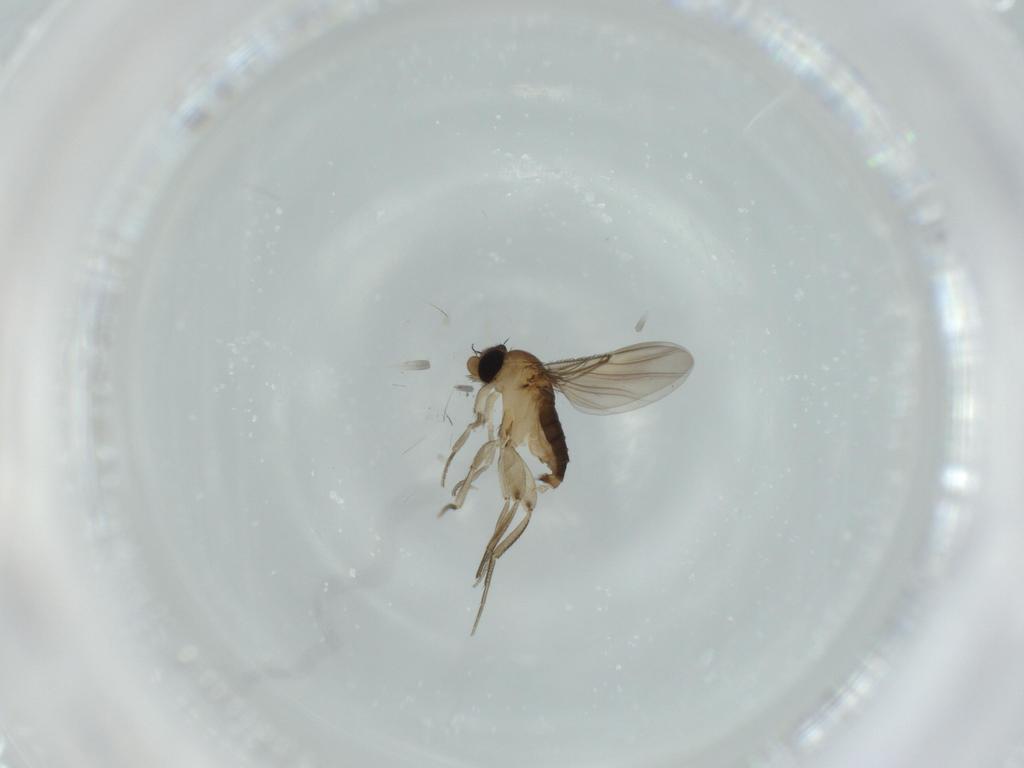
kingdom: Animalia
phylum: Arthropoda
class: Insecta
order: Diptera
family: Phoridae
